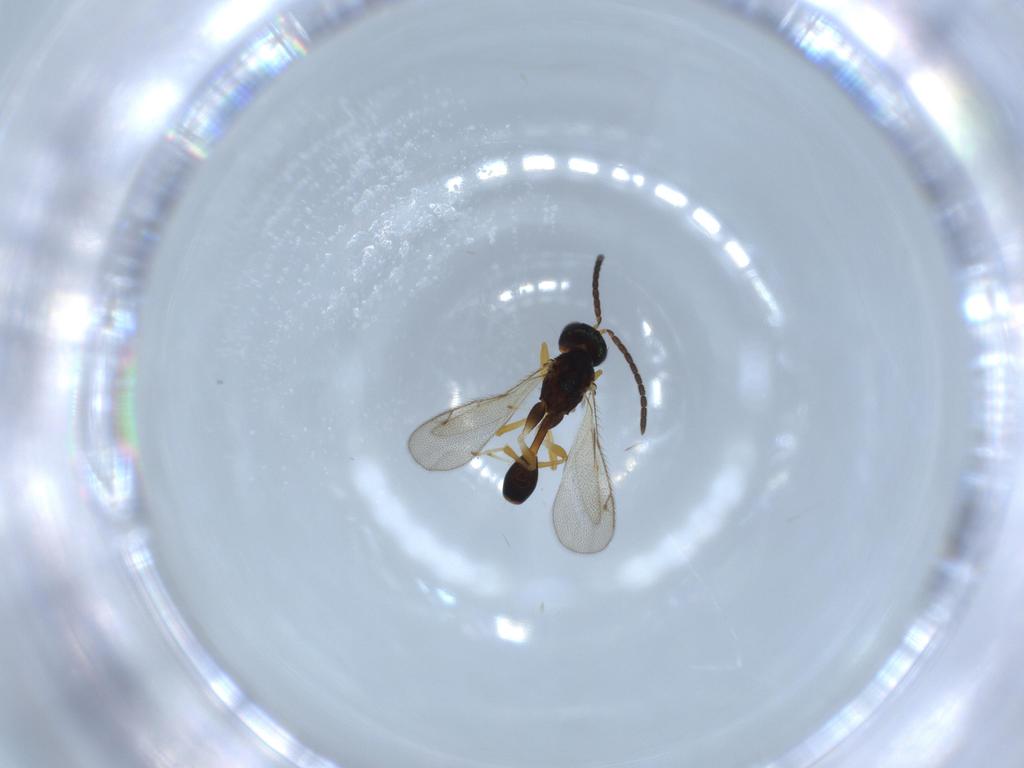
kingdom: Animalia
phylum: Arthropoda
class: Insecta
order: Hymenoptera
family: Diparidae
